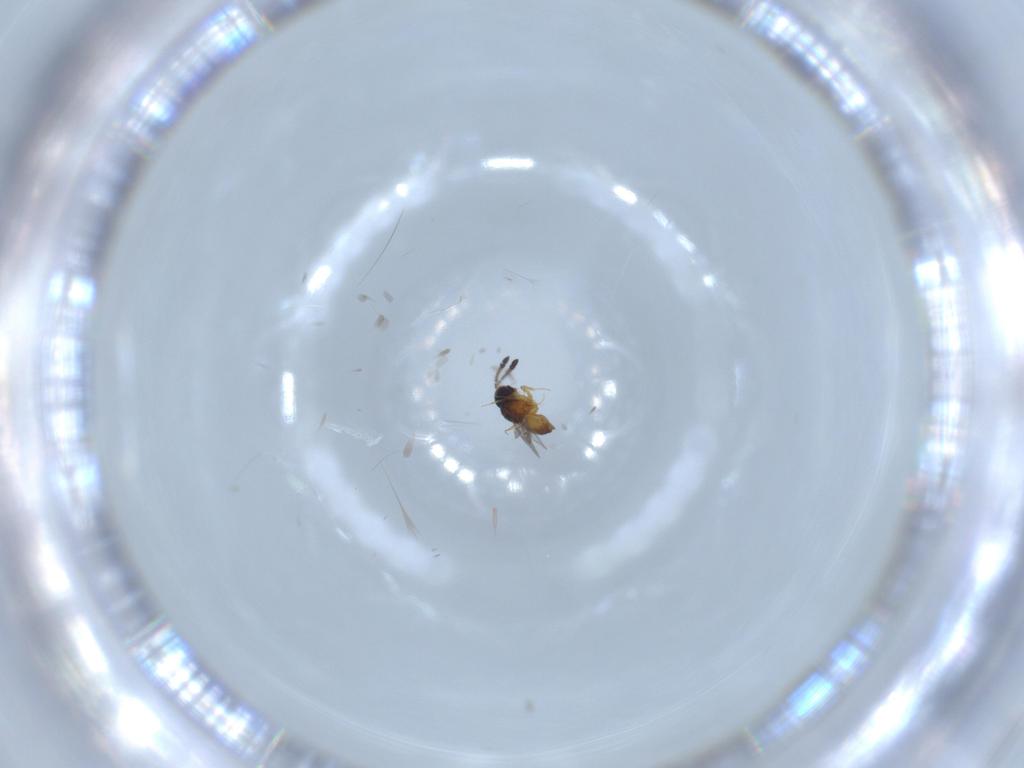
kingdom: Animalia
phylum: Arthropoda
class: Insecta
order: Hymenoptera
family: Ceraphronidae
